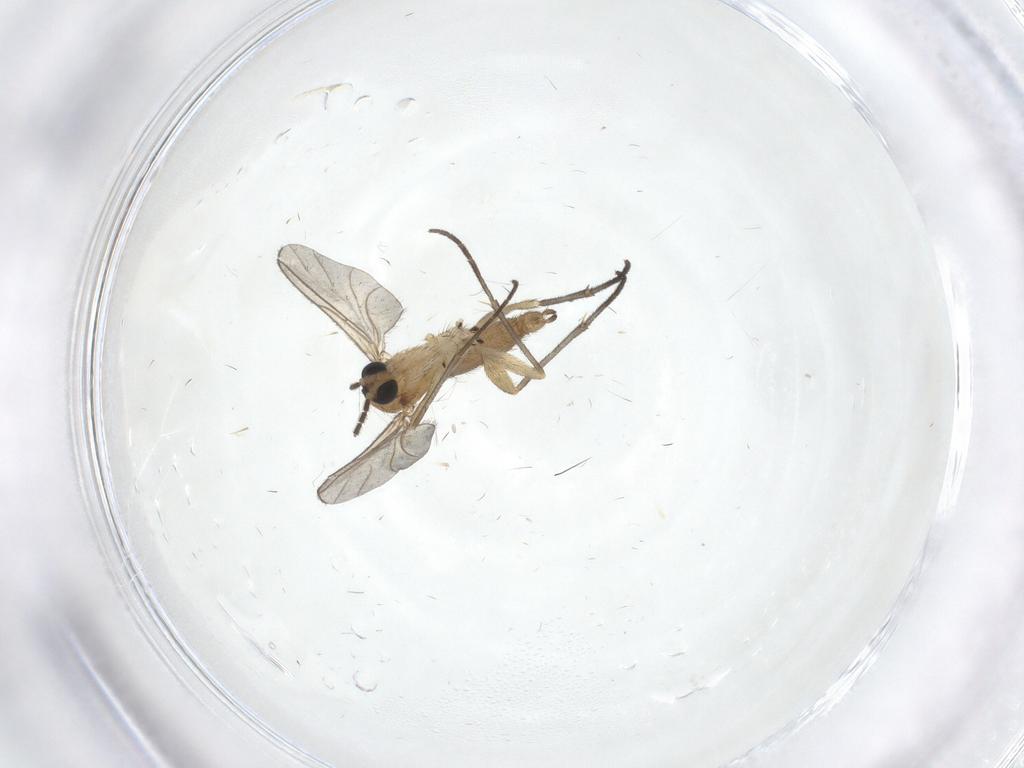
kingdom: Animalia
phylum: Arthropoda
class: Insecta
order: Diptera
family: Sciaridae
